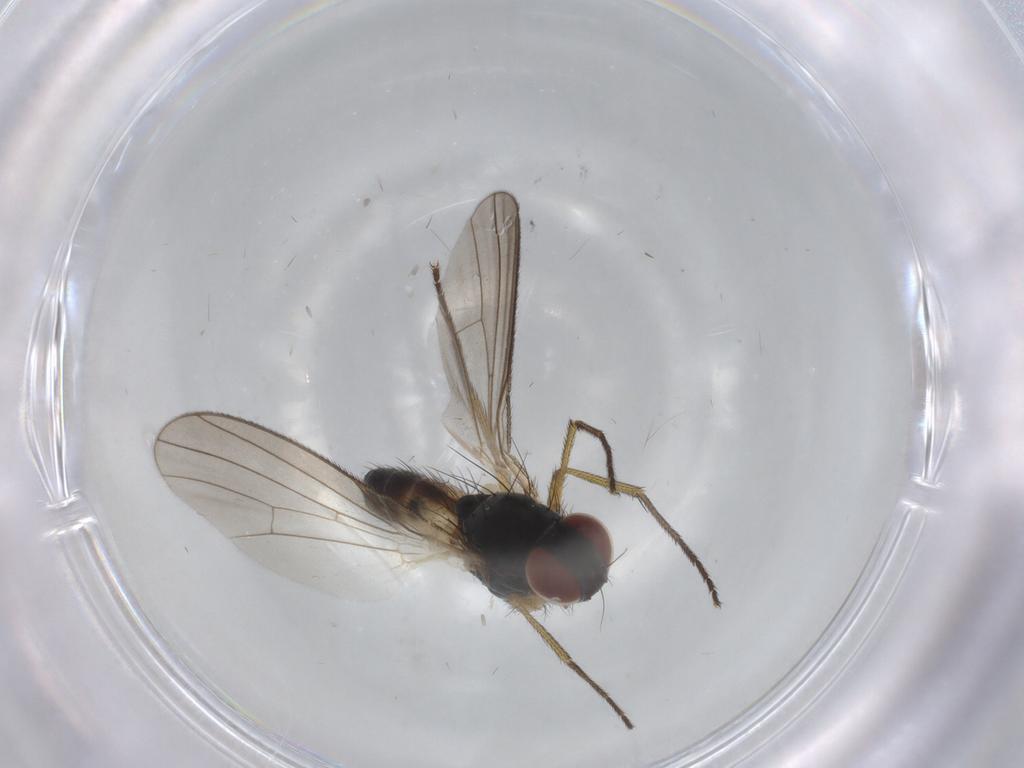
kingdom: Animalia
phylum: Arthropoda
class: Insecta
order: Diptera
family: Muscidae
